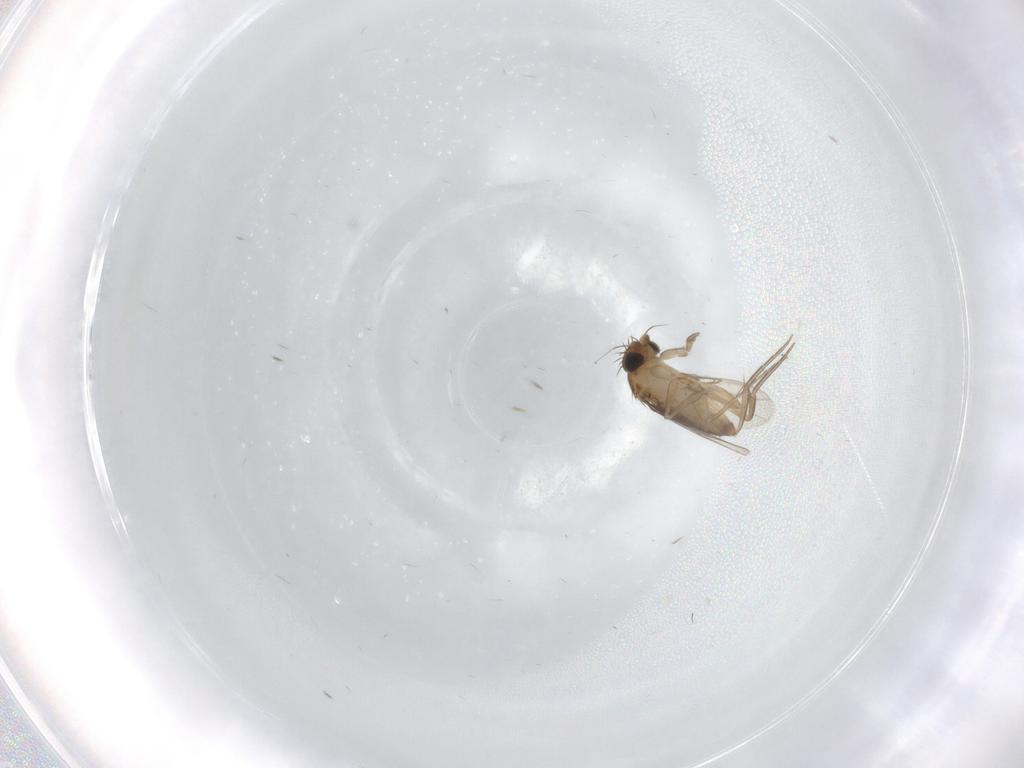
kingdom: Animalia
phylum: Arthropoda
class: Insecta
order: Diptera
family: Phoridae
